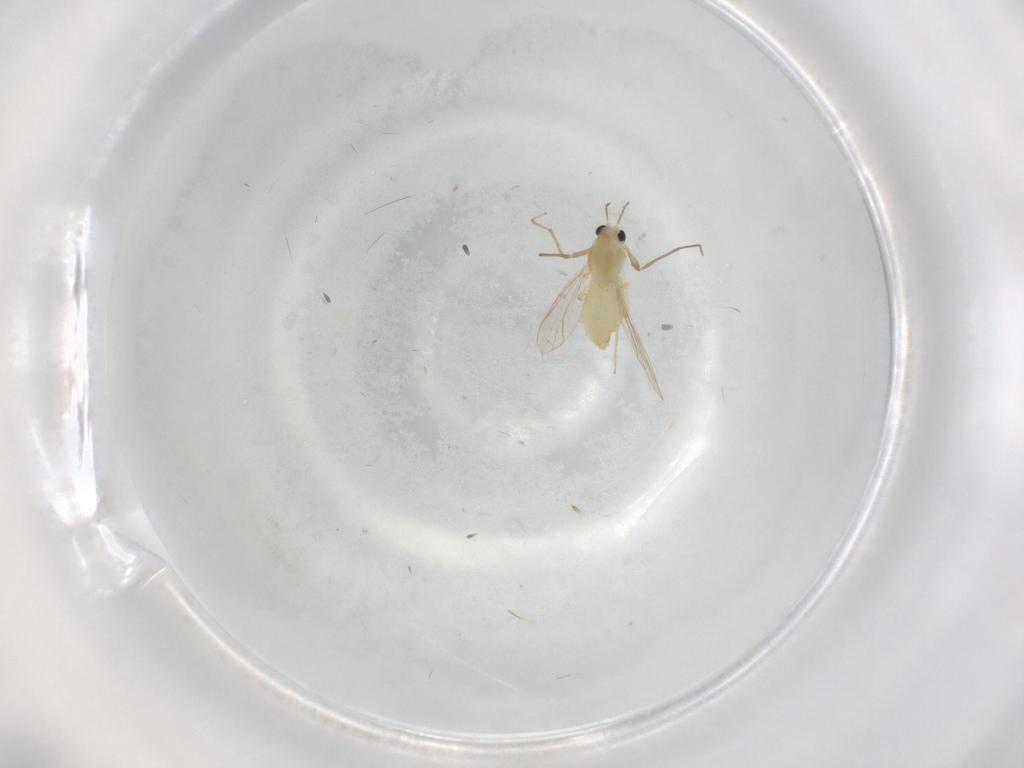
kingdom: Animalia
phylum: Arthropoda
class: Insecta
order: Diptera
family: Chironomidae
